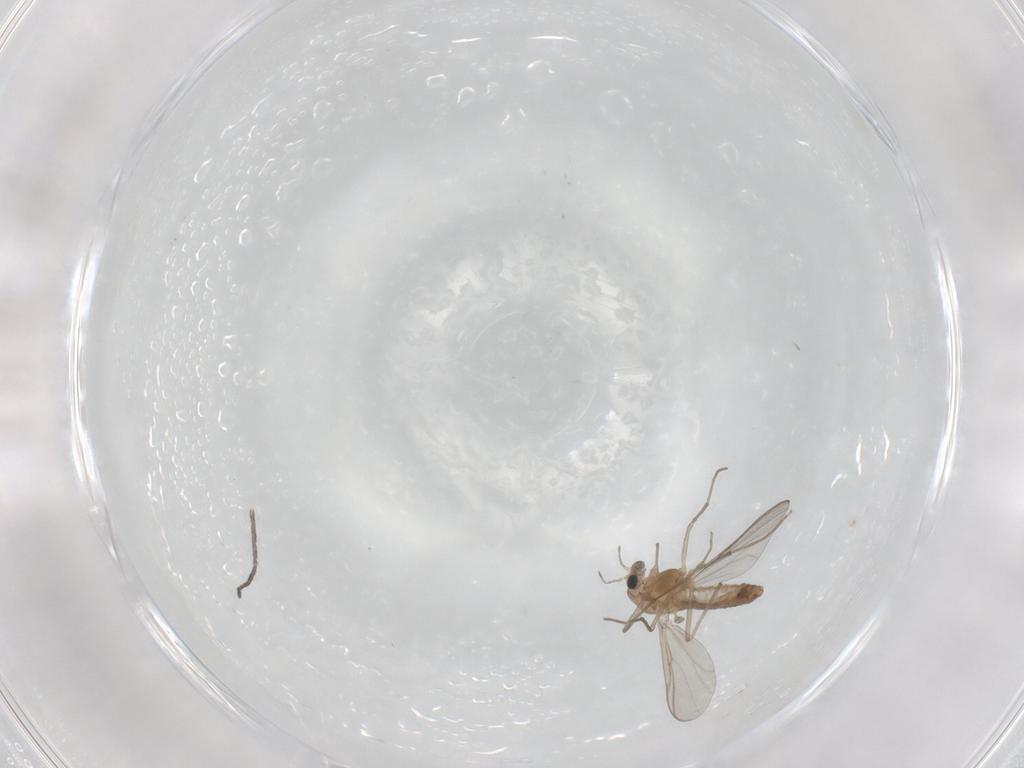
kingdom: Animalia
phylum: Arthropoda
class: Insecta
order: Diptera
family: Chironomidae
